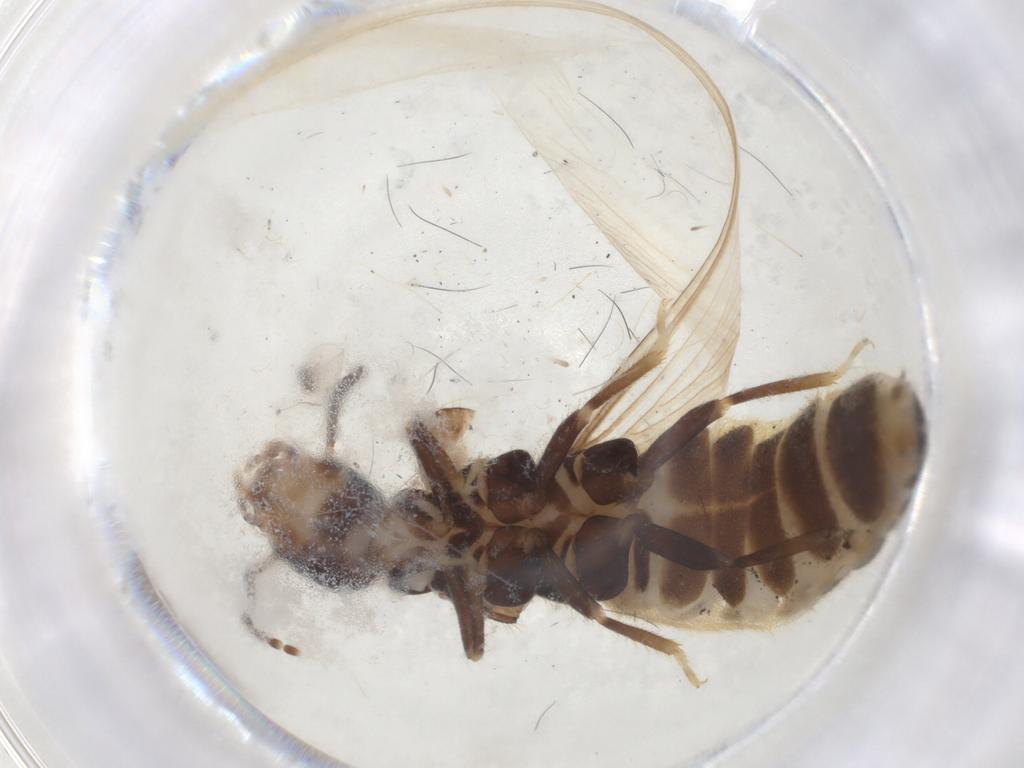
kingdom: Animalia
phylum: Arthropoda
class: Insecta
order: Blattodea
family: Rhinotermitidae
